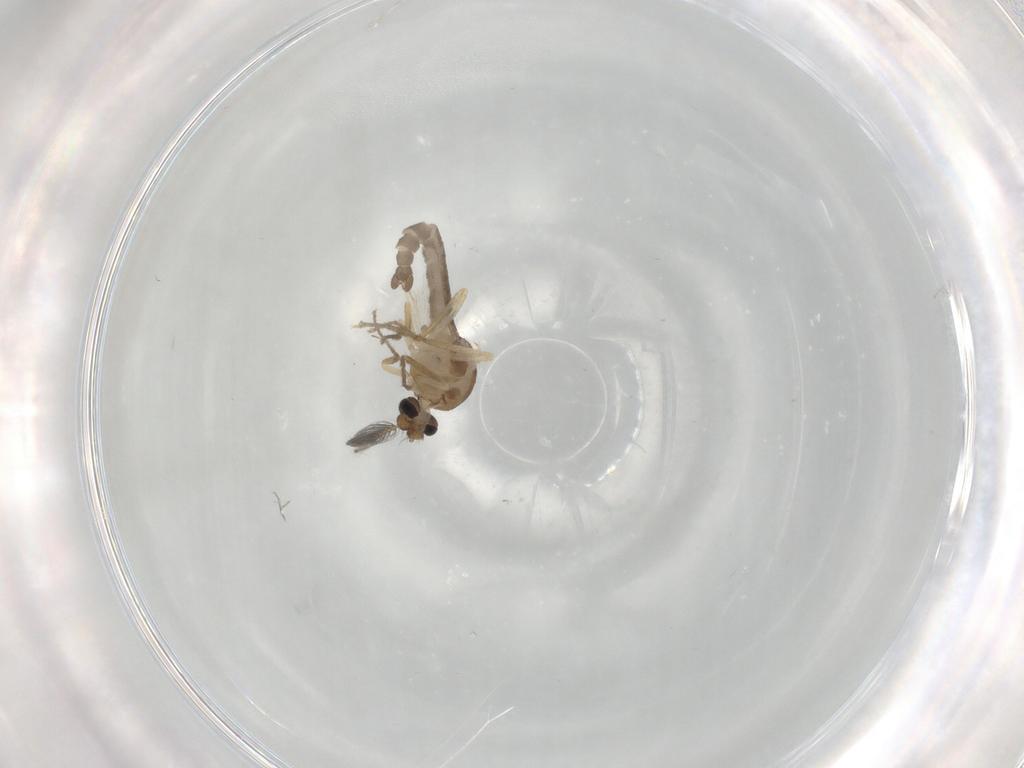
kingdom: Animalia
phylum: Arthropoda
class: Insecta
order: Diptera
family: Ceratopogonidae
